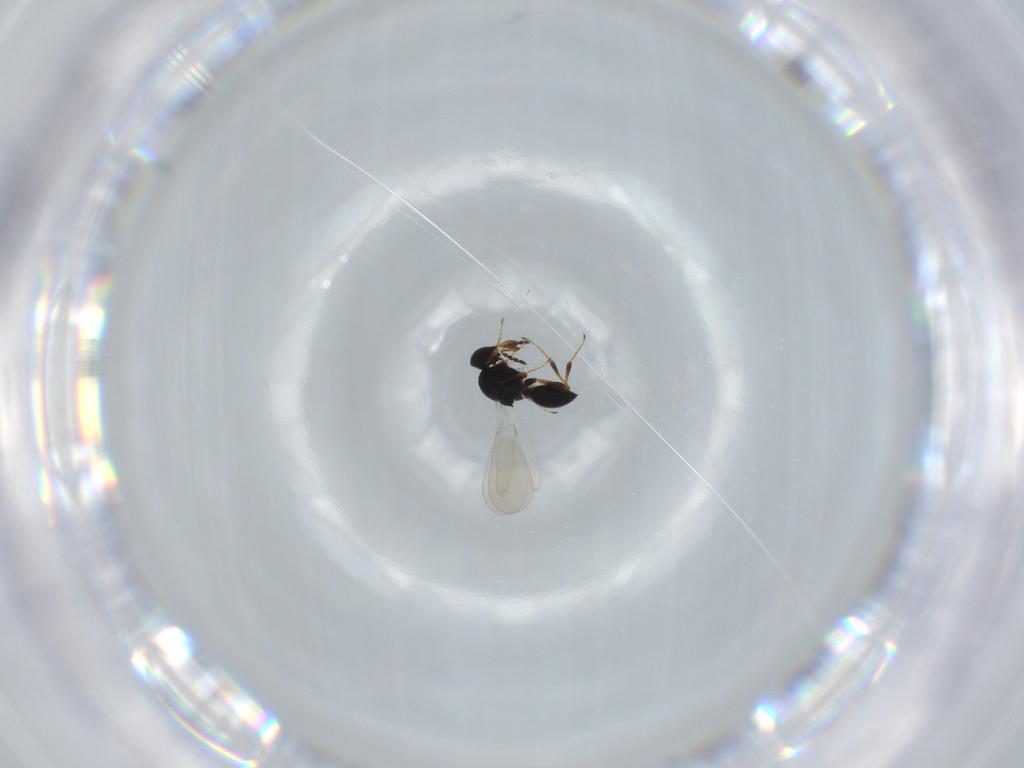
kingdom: Animalia
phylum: Arthropoda
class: Insecta
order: Hymenoptera
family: Platygastridae
